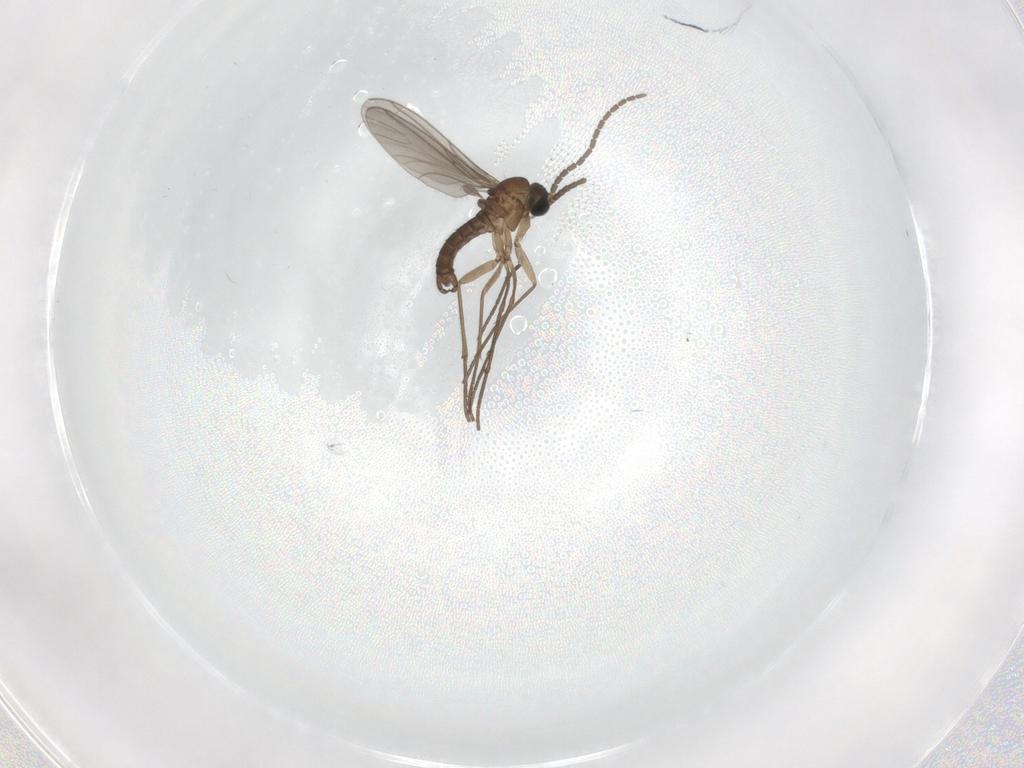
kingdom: Animalia
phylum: Arthropoda
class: Insecta
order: Diptera
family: Sciaridae
